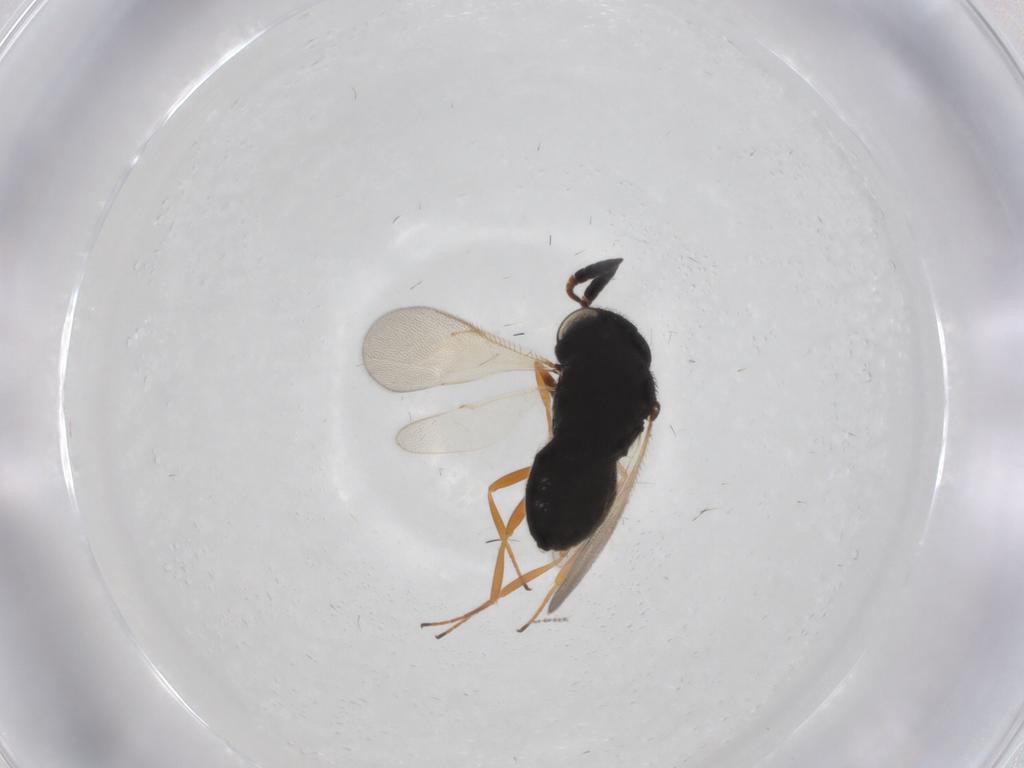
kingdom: Animalia
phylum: Arthropoda
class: Insecta
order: Hymenoptera
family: Scelionidae
